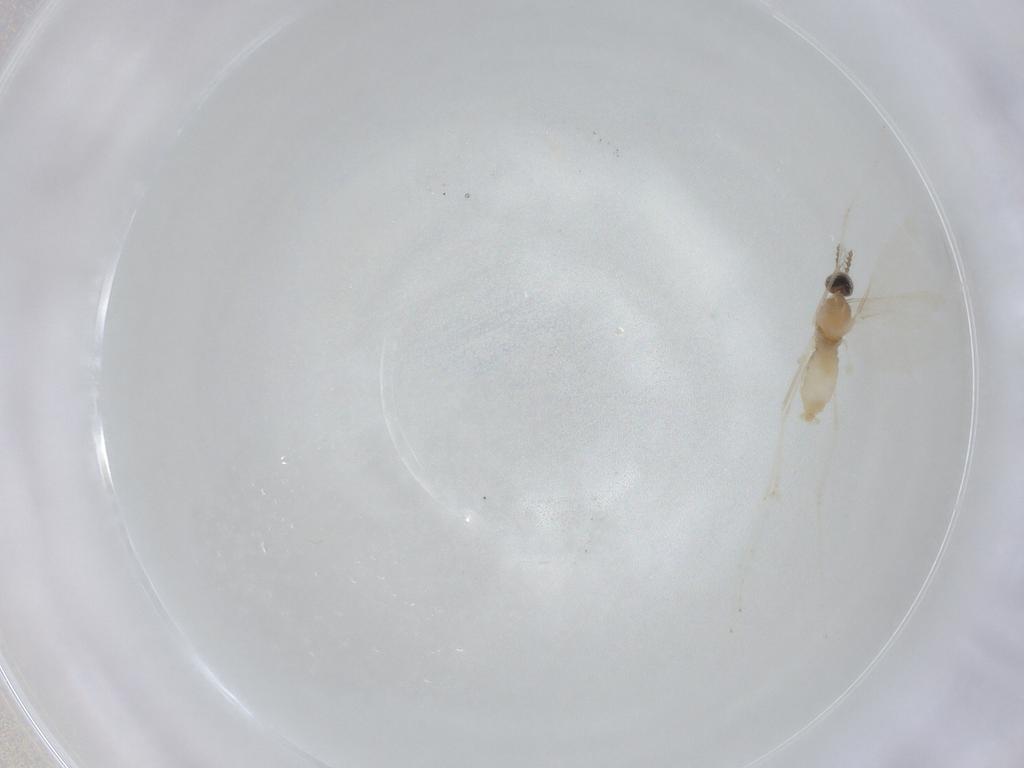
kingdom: Animalia
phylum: Arthropoda
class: Insecta
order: Diptera
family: Cecidomyiidae
